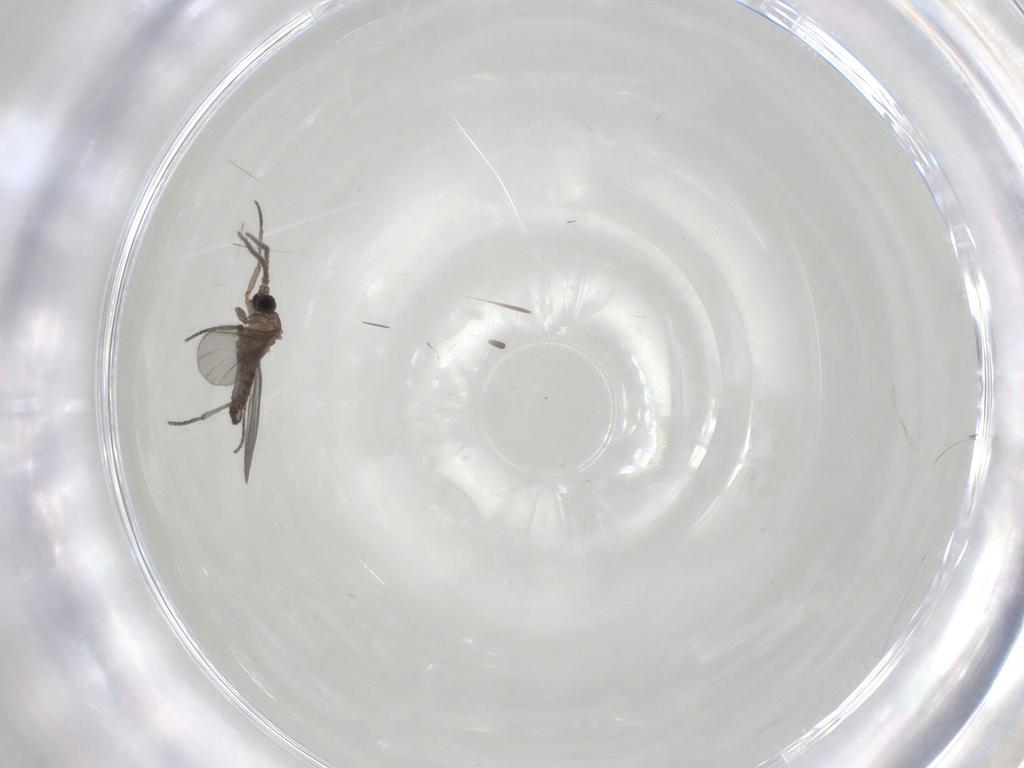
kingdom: Animalia
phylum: Arthropoda
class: Insecta
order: Diptera
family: Sciaridae
